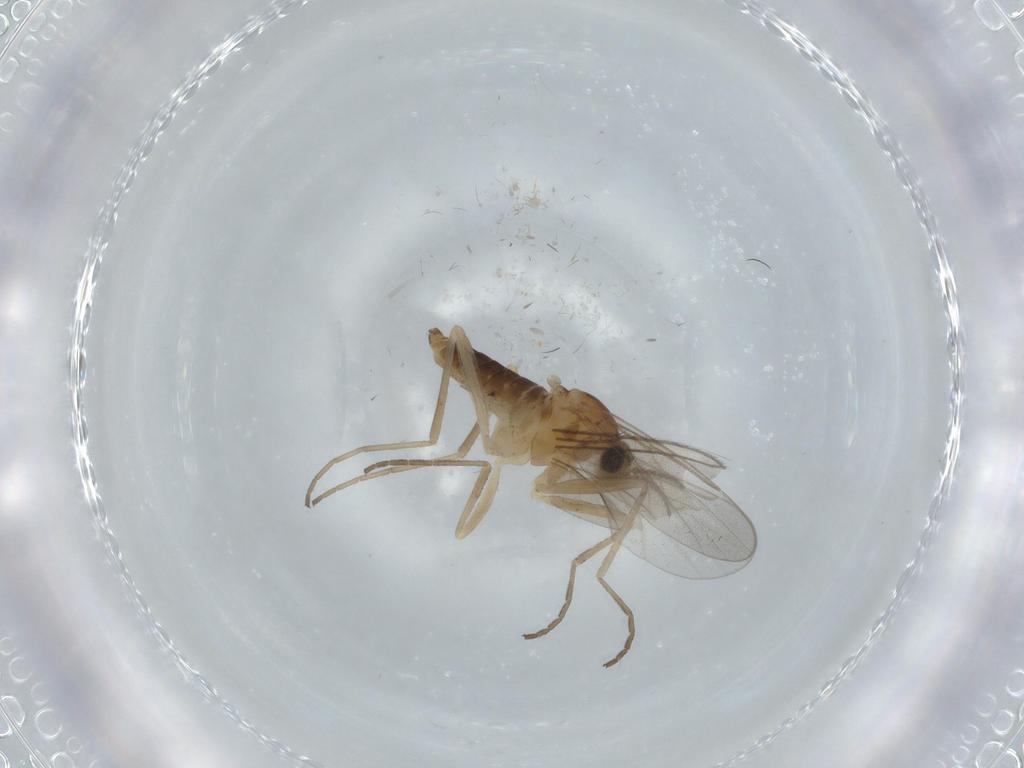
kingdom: Animalia
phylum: Arthropoda
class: Insecta
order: Diptera
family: Cecidomyiidae
